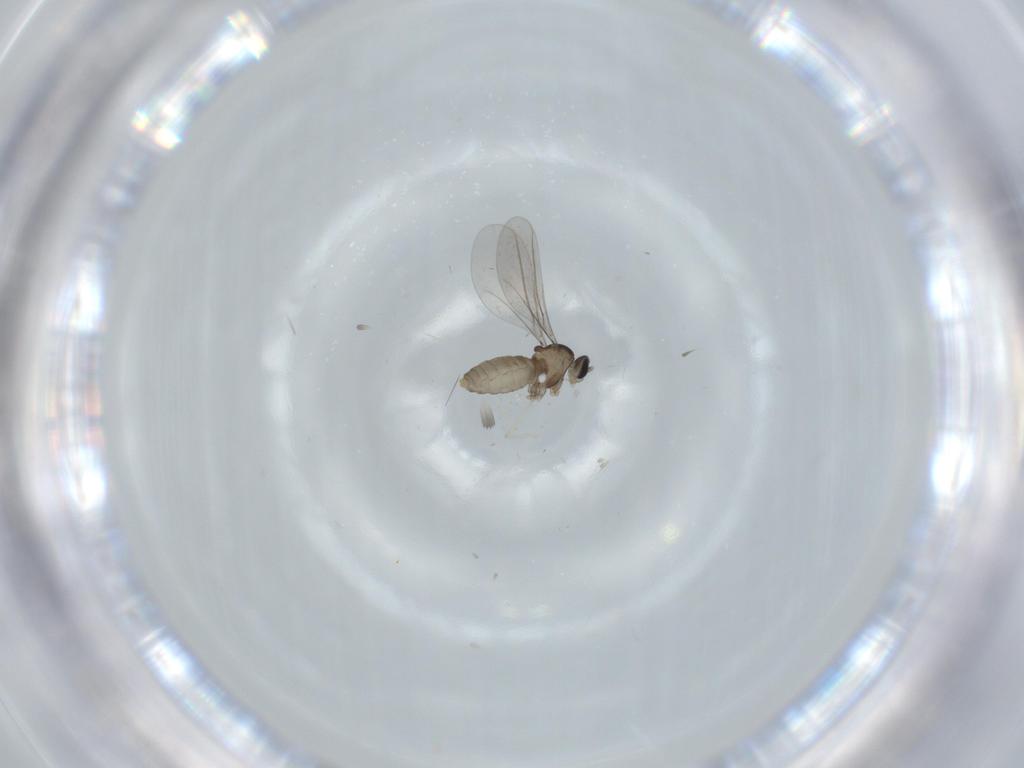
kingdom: Animalia
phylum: Arthropoda
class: Insecta
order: Diptera
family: Cecidomyiidae
